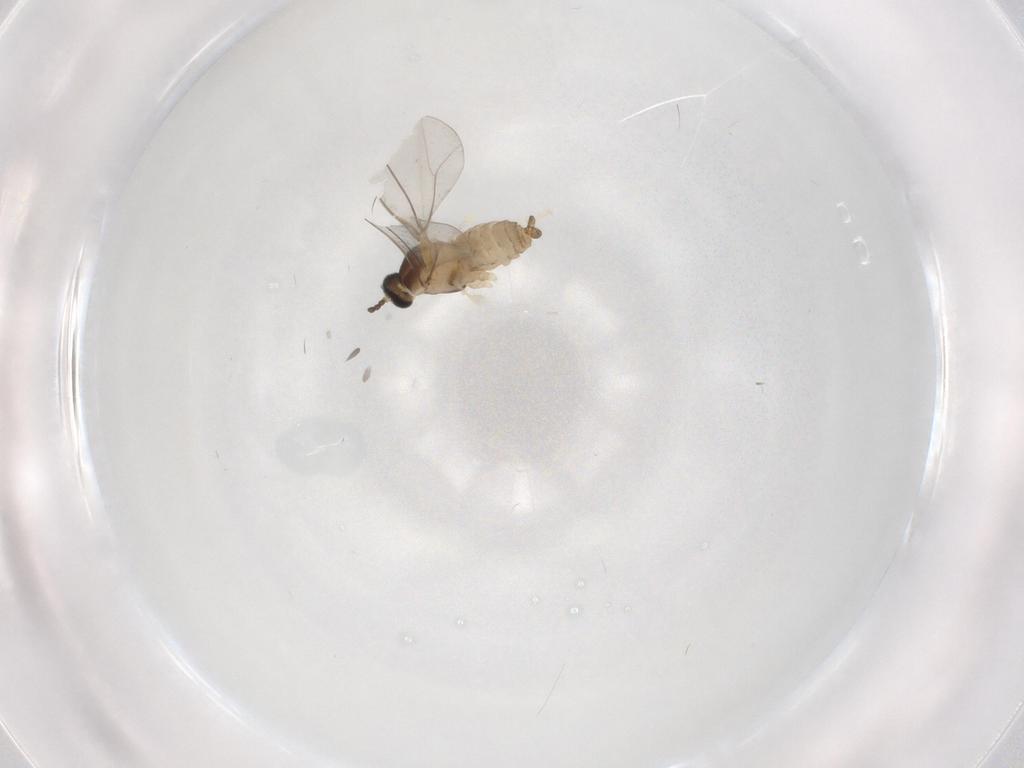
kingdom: Animalia
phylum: Arthropoda
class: Insecta
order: Diptera
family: Cecidomyiidae
